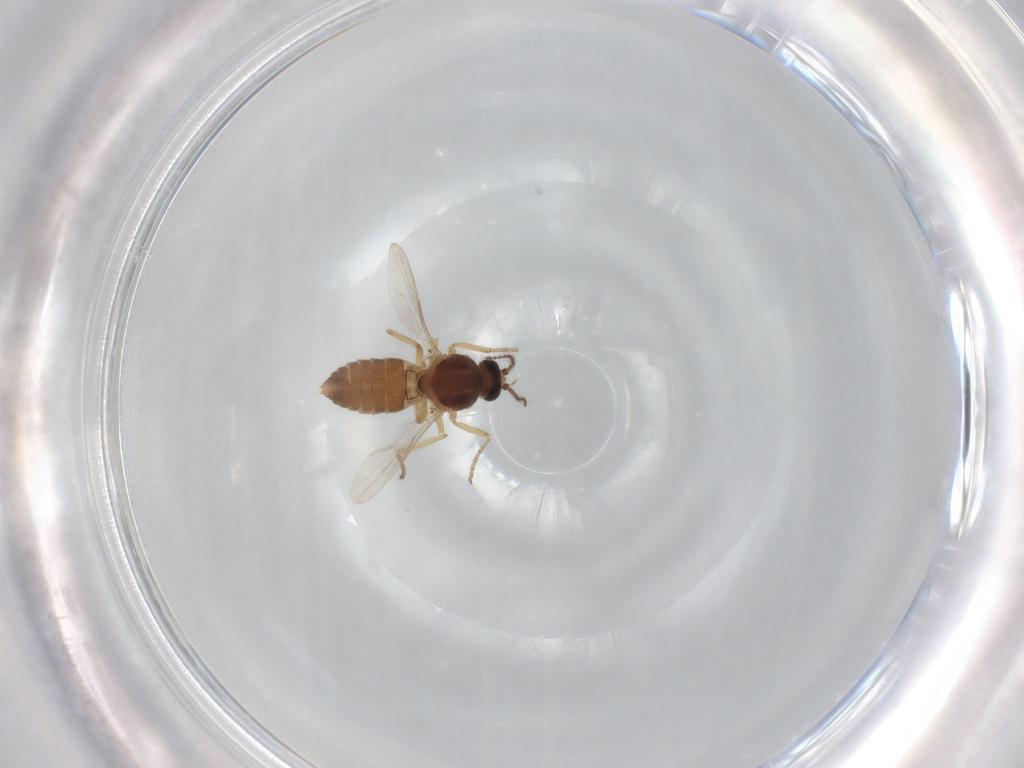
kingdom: Animalia
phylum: Arthropoda
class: Insecta
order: Diptera
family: Ceratopogonidae
